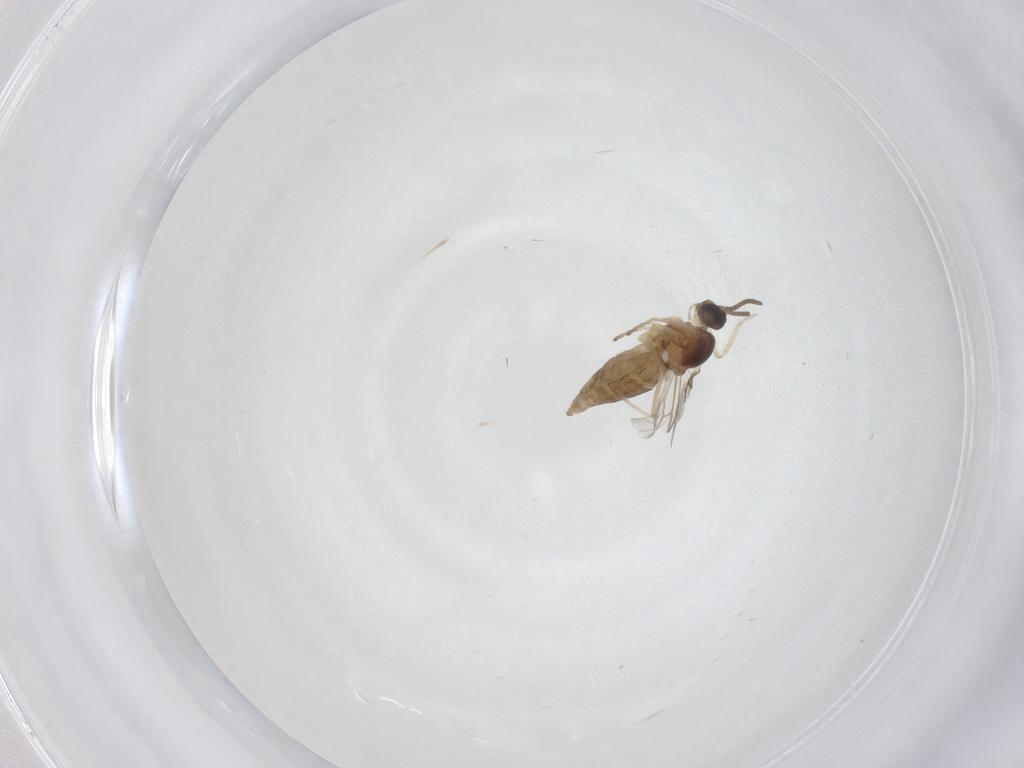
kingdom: Animalia
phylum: Arthropoda
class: Insecta
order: Diptera
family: Cecidomyiidae
